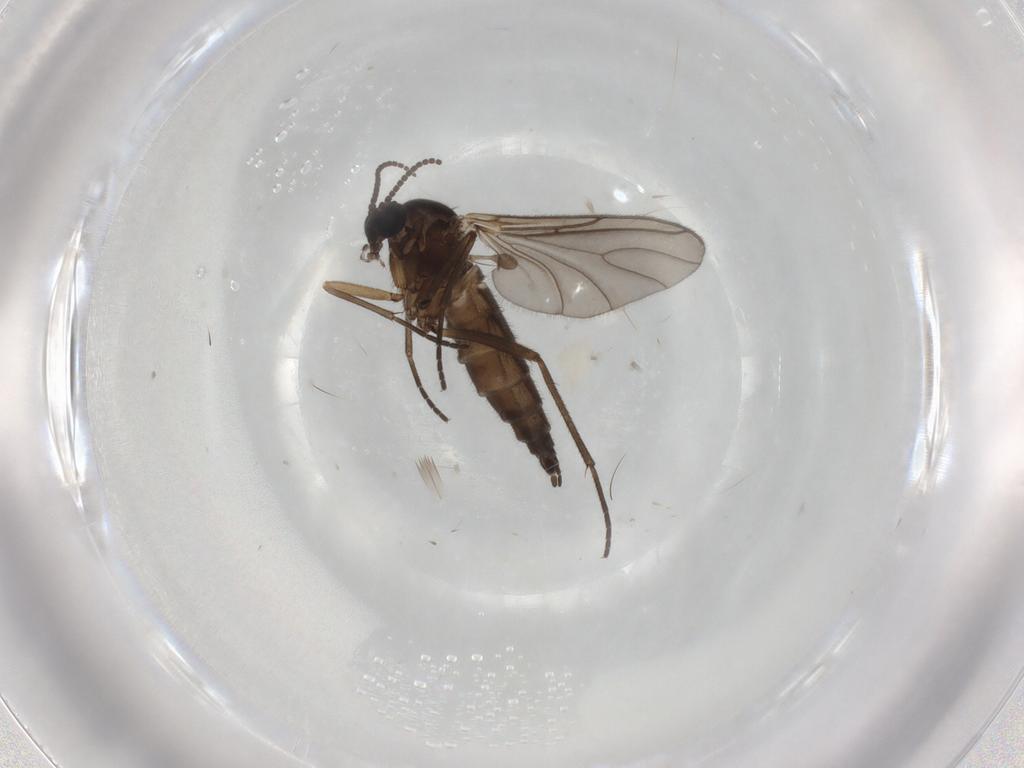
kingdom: Animalia
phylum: Arthropoda
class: Insecta
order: Diptera
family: Sciaridae
